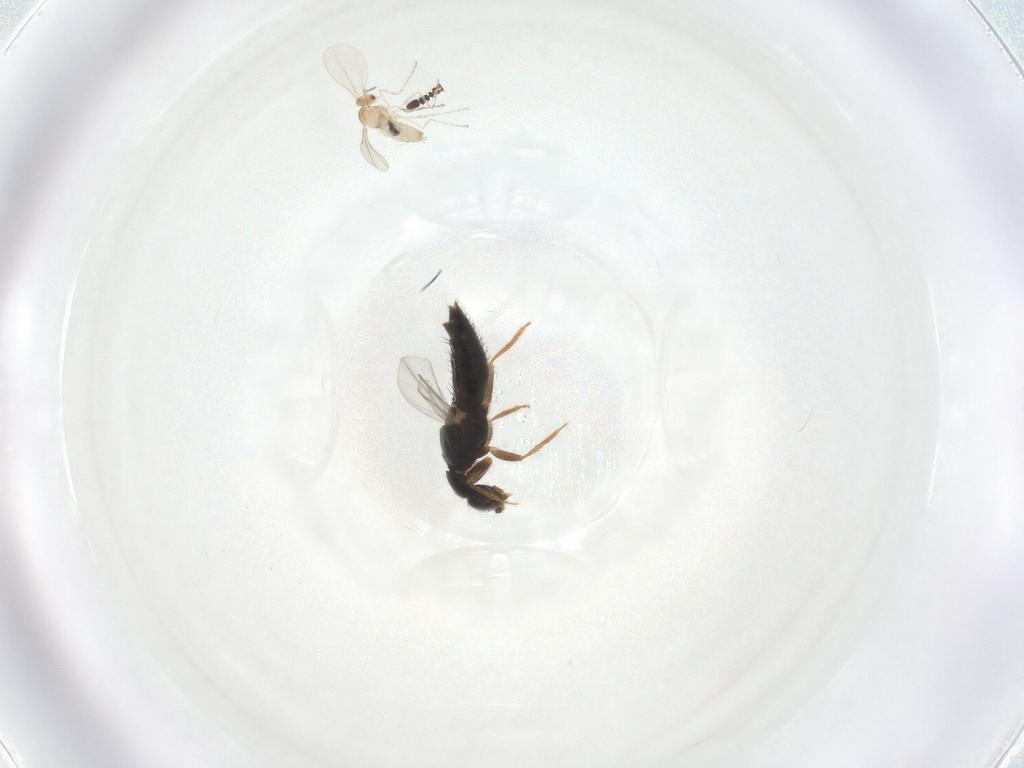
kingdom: Animalia
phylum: Arthropoda
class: Insecta
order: Coleoptera
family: Staphylinidae
